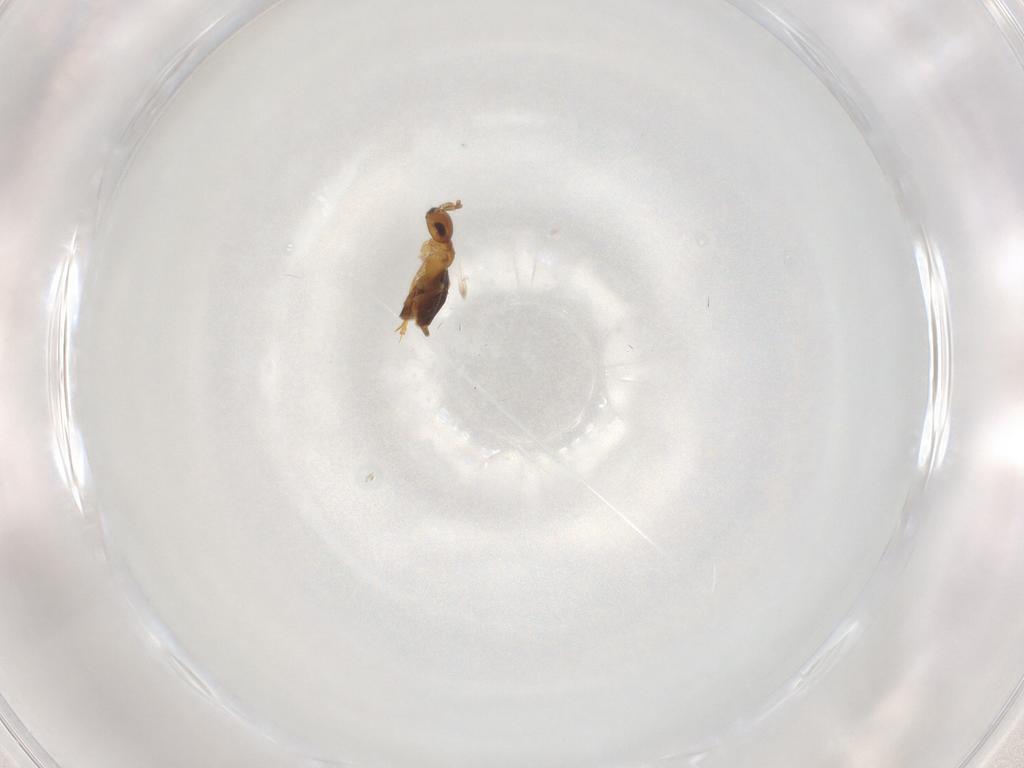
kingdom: Animalia
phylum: Arthropoda
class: Insecta
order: Hymenoptera
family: Encyrtidae
